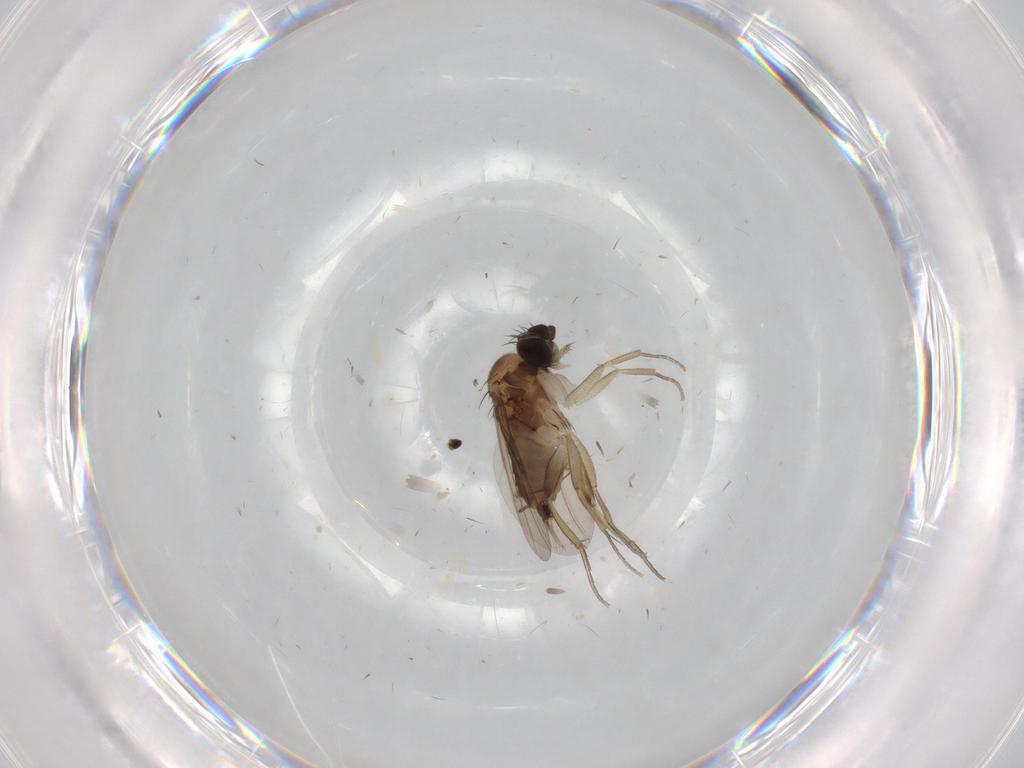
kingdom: Animalia
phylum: Arthropoda
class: Insecta
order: Diptera
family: Phoridae
